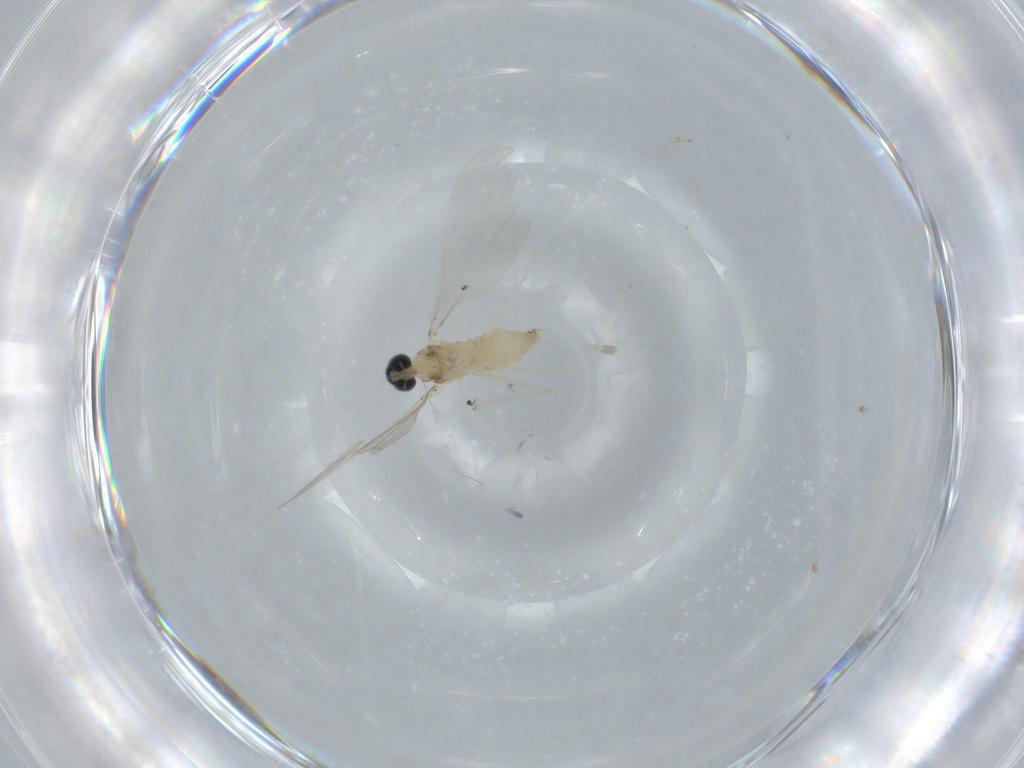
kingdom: Animalia
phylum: Arthropoda
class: Insecta
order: Diptera
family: Cecidomyiidae
